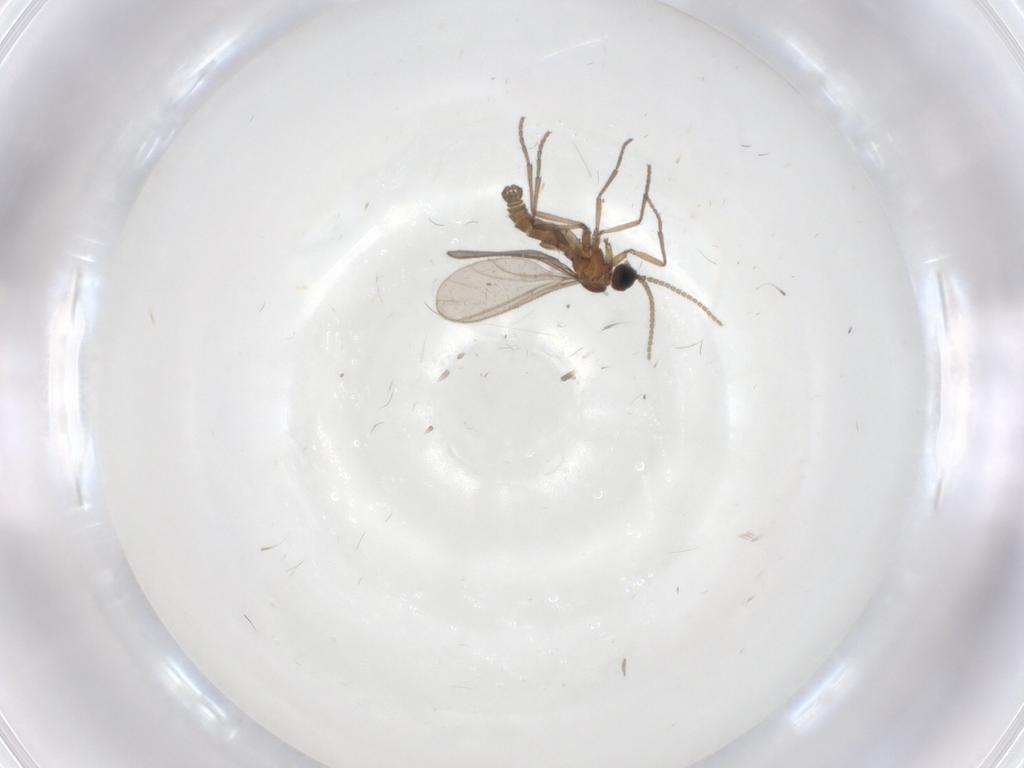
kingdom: Animalia
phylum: Arthropoda
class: Insecta
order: Diptera
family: Sciaridae
